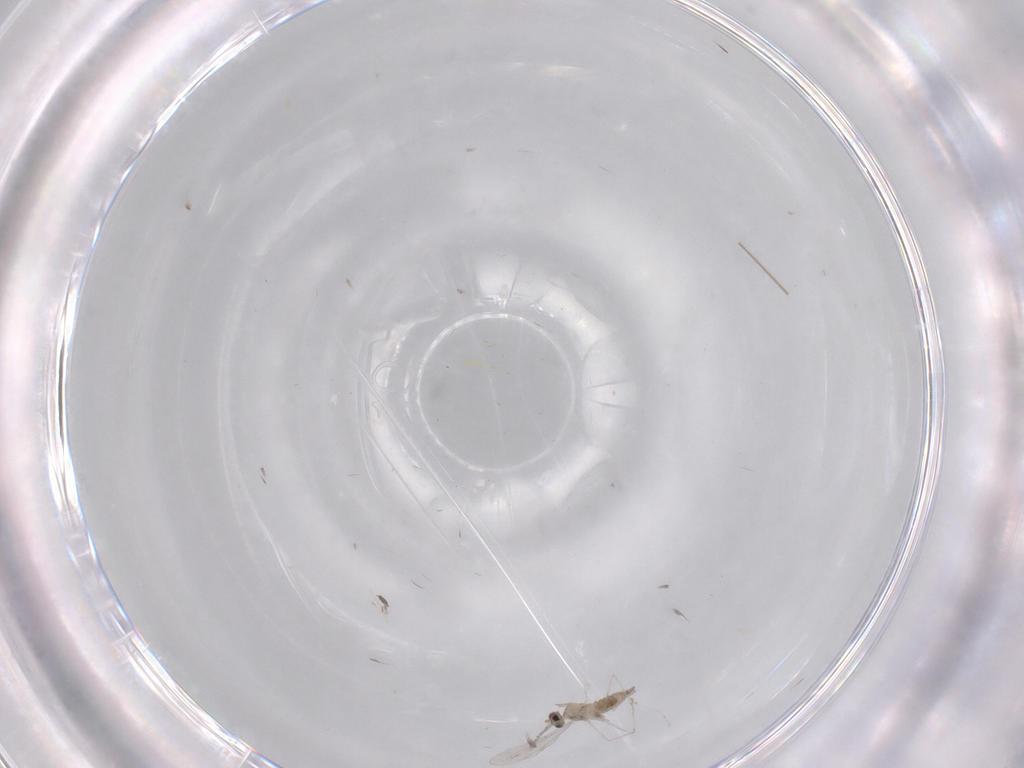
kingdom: Animalia
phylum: Arthropoda
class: Insecta
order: Diptera
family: Cecidomyiidae
